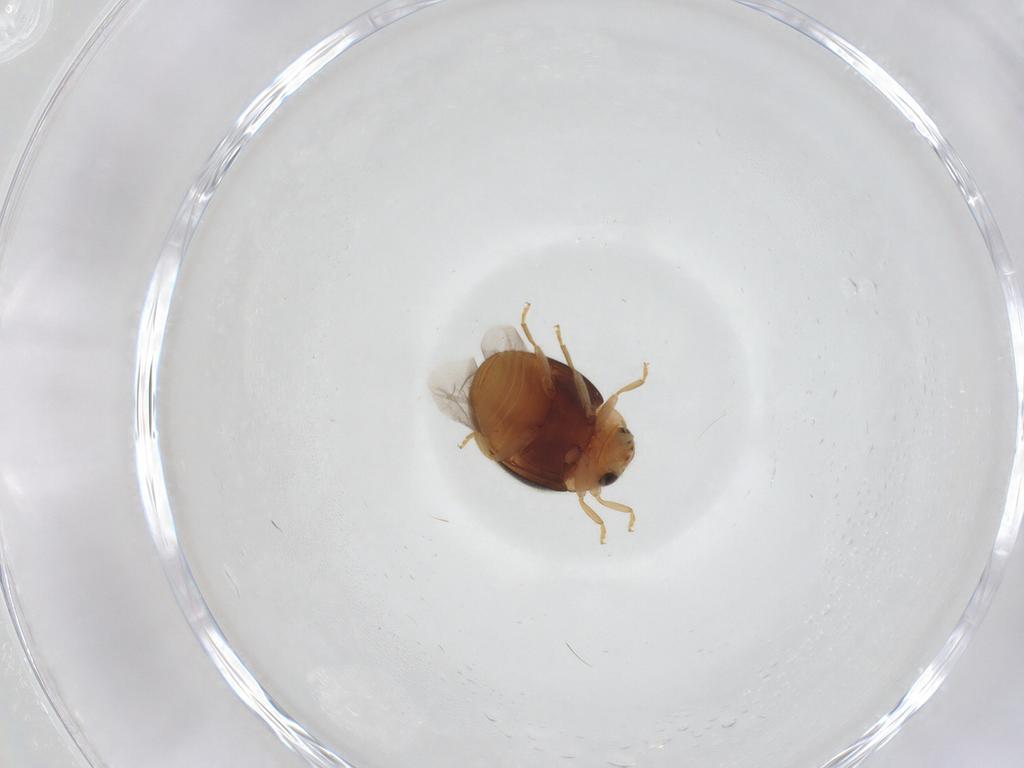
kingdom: Animalia
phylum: Arthropoda
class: Insecta
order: Coleoptera
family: Coccinellidae
